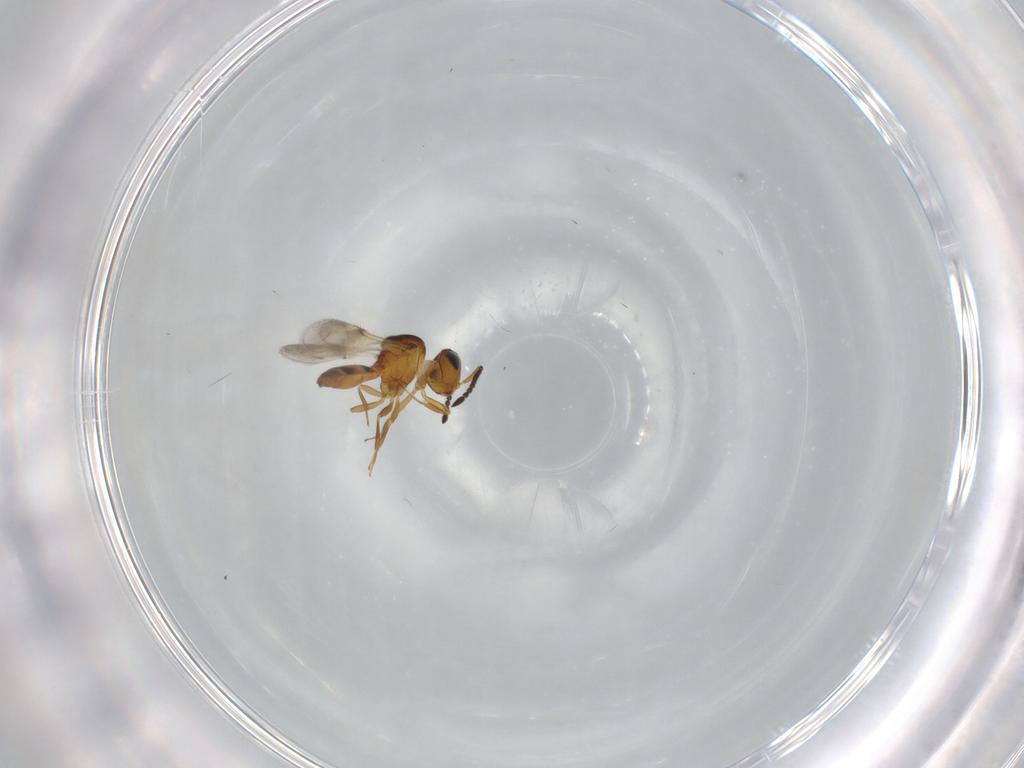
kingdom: Animalia
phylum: Arthropoda
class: Insecta
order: Hymenoptera
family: Scelionidae
